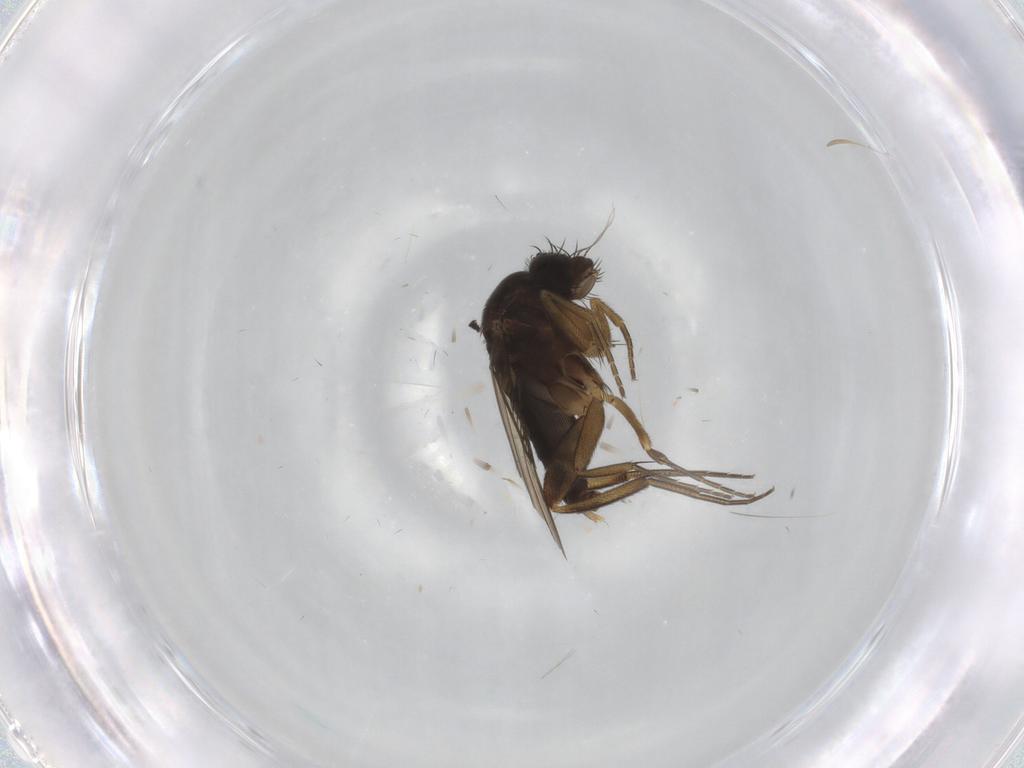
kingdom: Animalia
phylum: Arthropoda
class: Insecta
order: Diptera
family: Phoridae
